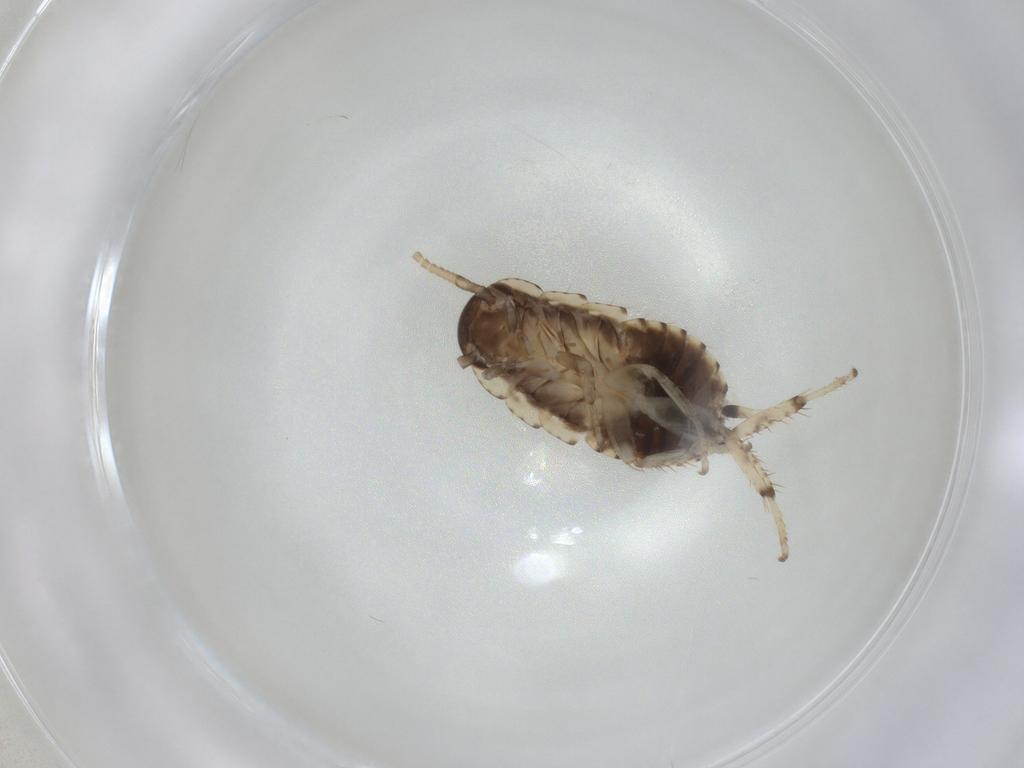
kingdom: Animalia
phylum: Arthropoda
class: Insecta
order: Blattodea
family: Blaberidae
